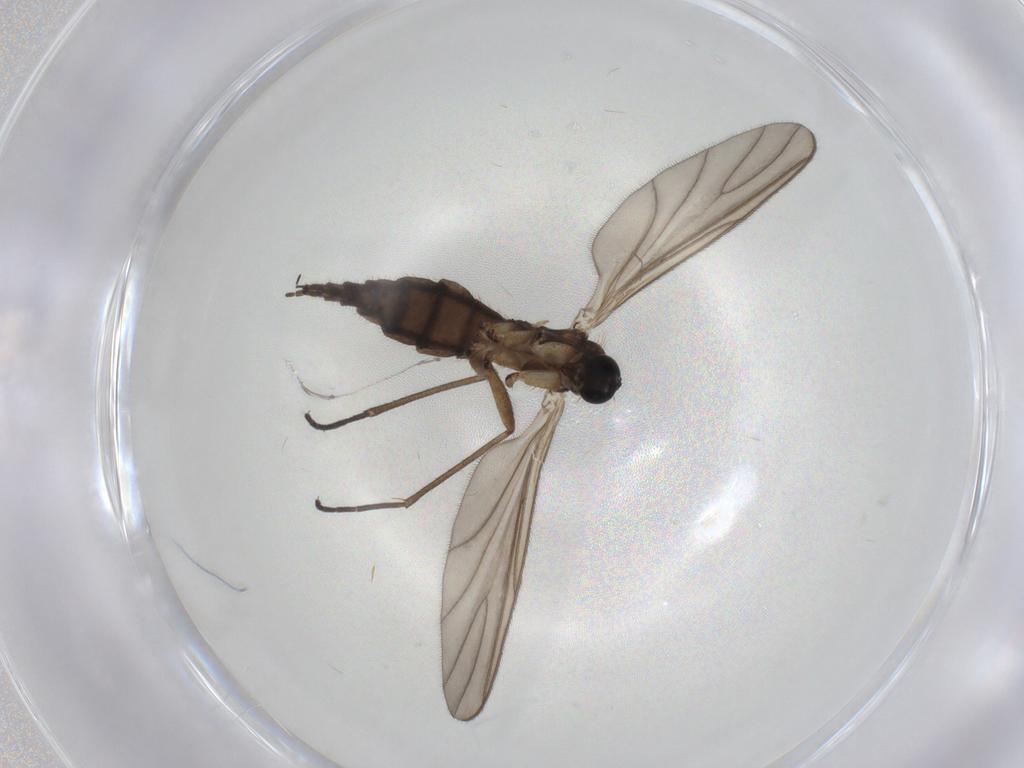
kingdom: Animalia
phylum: Arthropoda
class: Insecta
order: Diptera
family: Sciaridae
